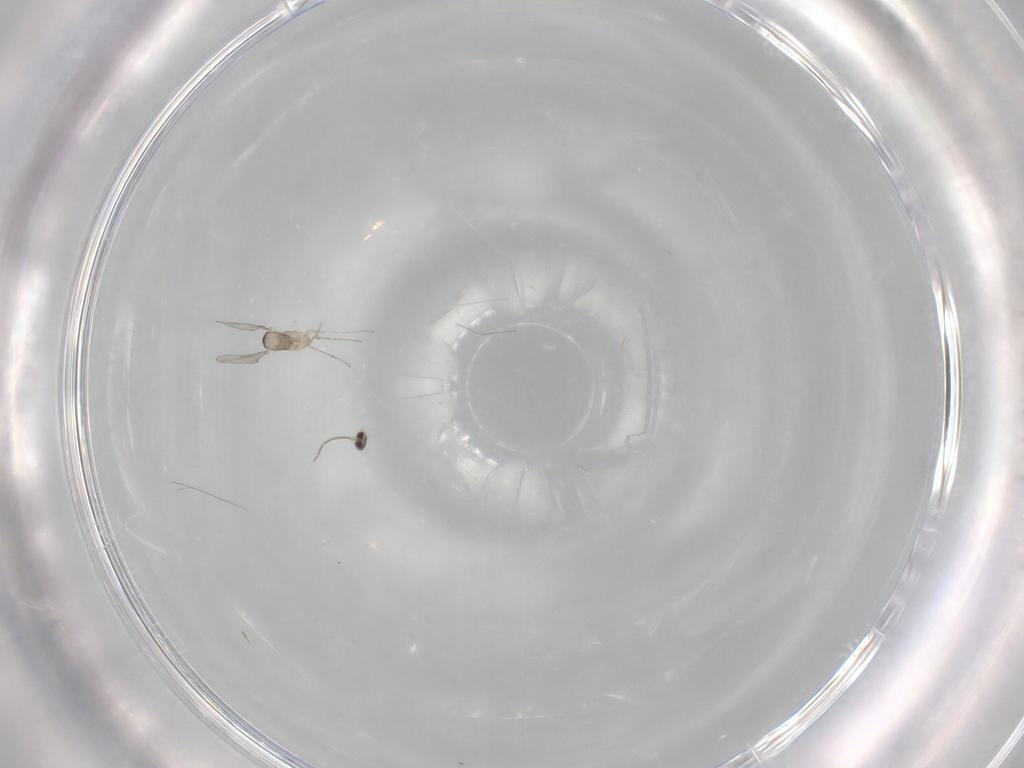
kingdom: Animalia
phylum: Arthropoda
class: Insecta
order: Diptera
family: Cecidomyiidae
